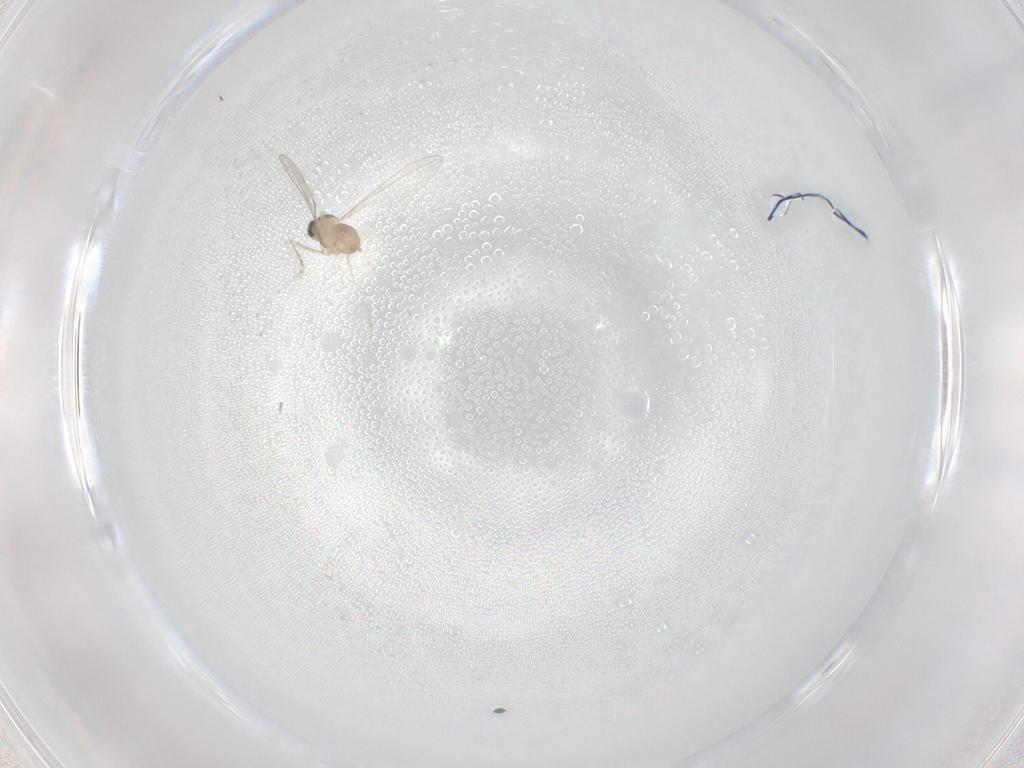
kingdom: Animalia
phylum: Arthropoda
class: Insecta
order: Diptera
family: Cecidomyiidae
